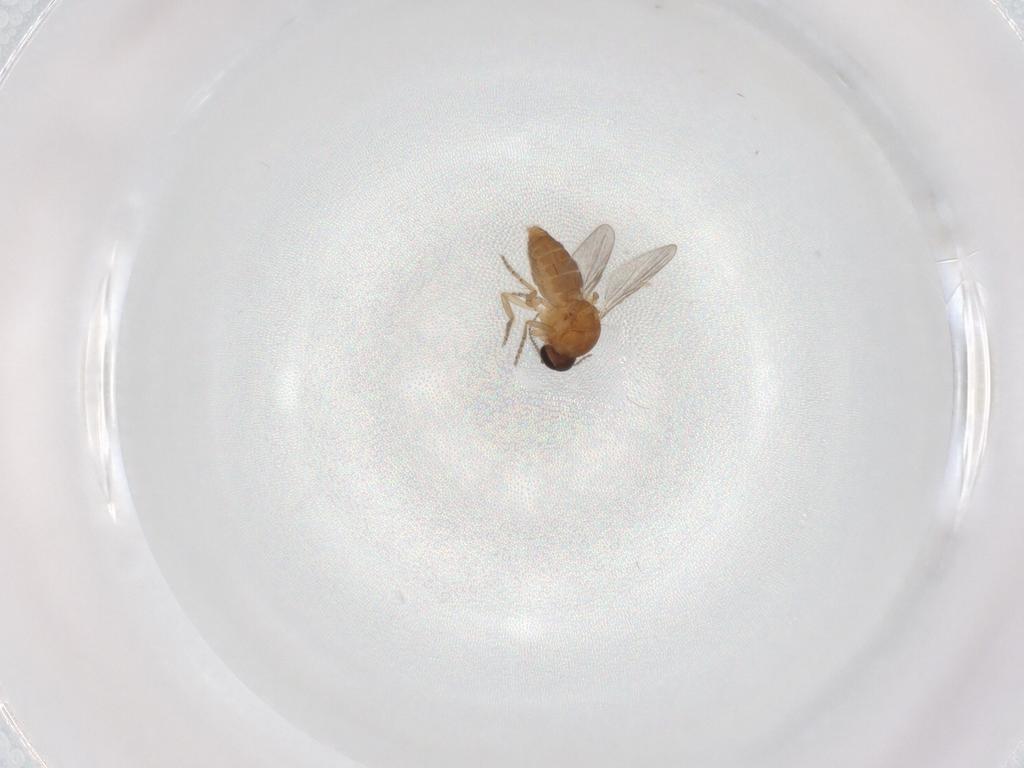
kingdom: Animalia
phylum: Arthropoda
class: Insecta
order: Diptera
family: Ceratopogonidae
